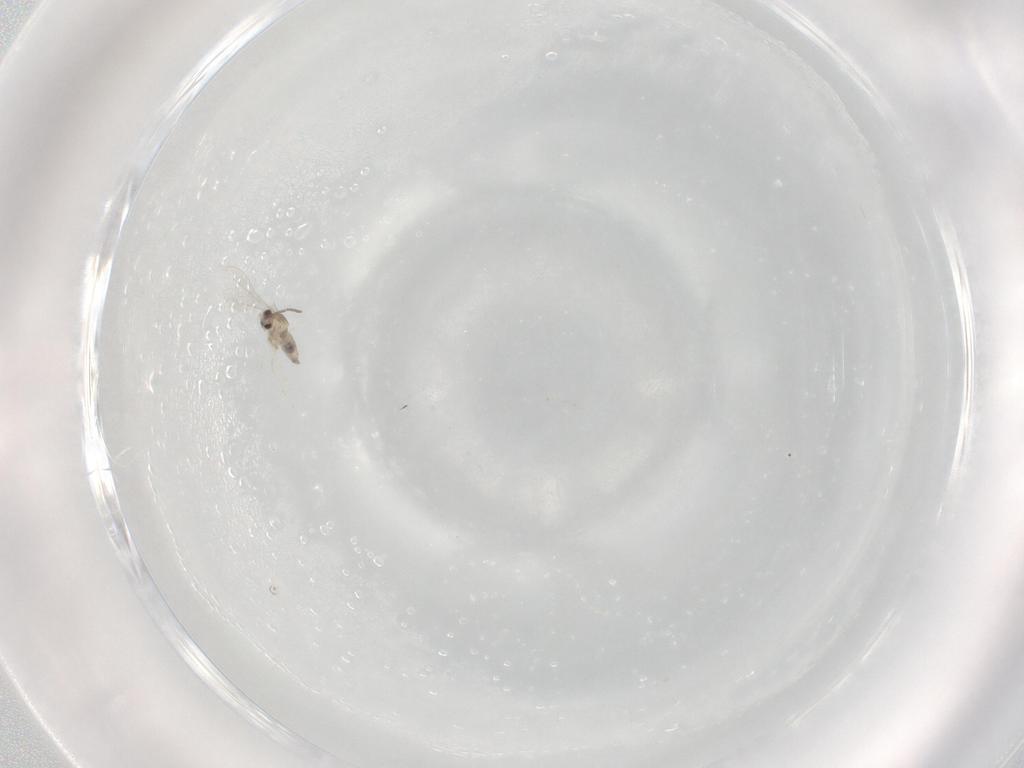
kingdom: Animalia
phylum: Arthropoda
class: Insecta
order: Diptera
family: Cecidomyiidae
